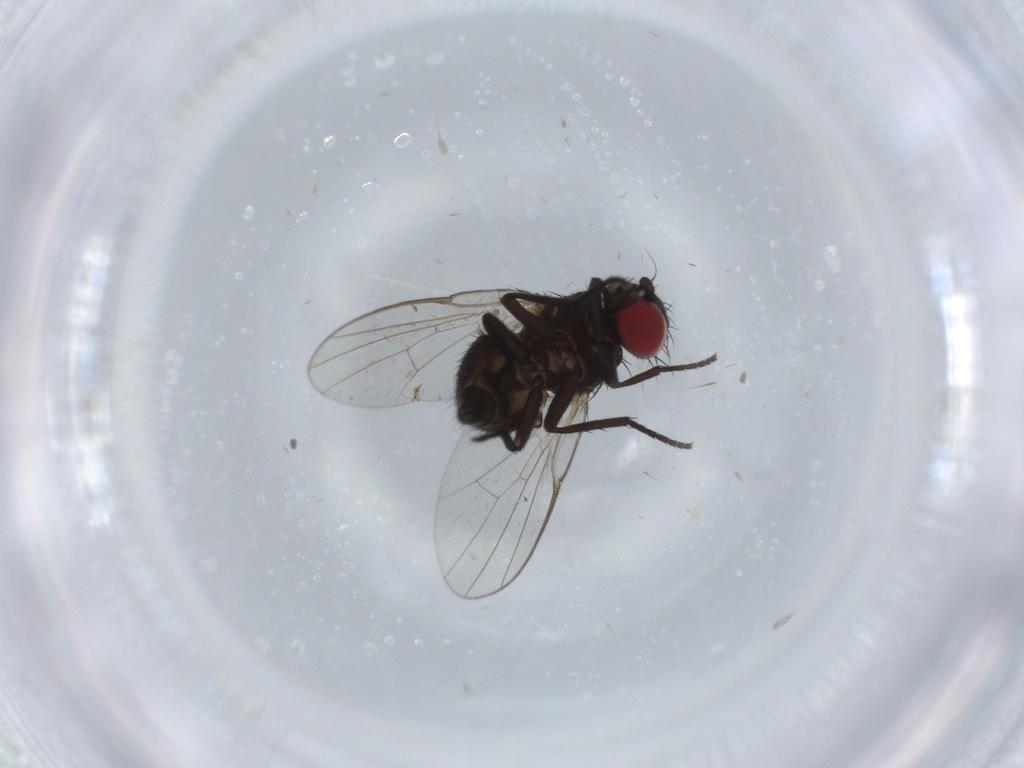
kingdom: Animalia
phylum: Arthropoda
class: Insecta
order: Diptera
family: Agromyzidae
